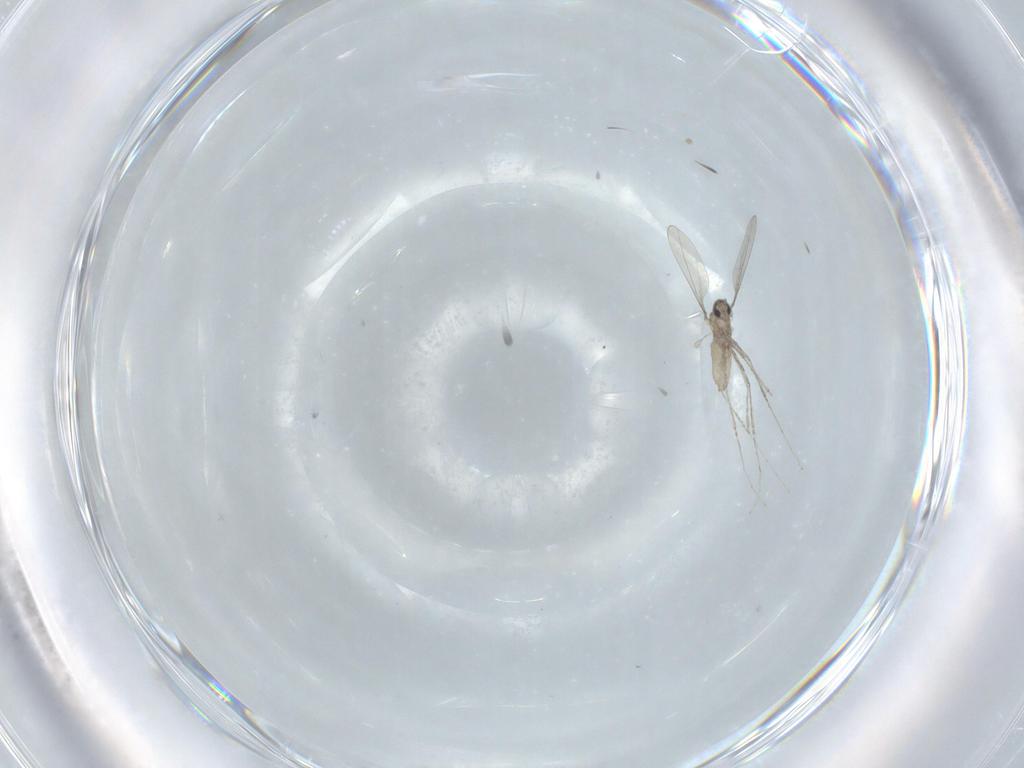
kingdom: Animalia
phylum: Arthropoda
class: Insecta
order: Diptera
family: Cecidomyiidae
